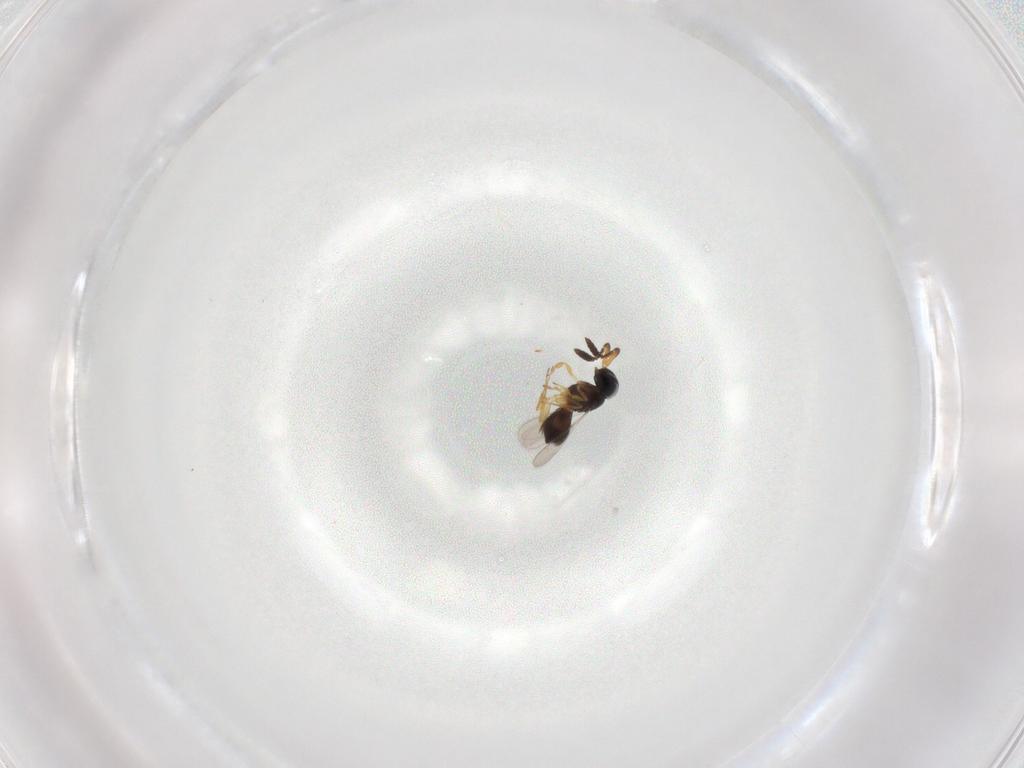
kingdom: Animalia
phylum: Arthropoda
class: Insecta
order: Hymenoptera
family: Scelionidae
